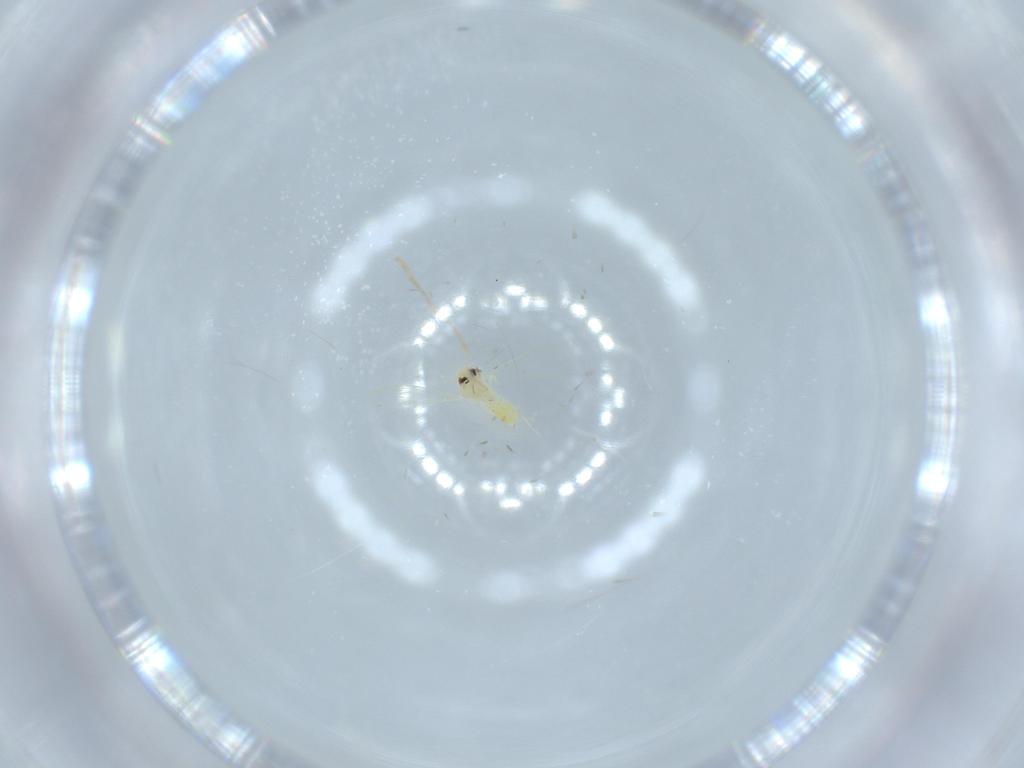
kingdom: Animalia
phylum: Arthropoda
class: Insecta
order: Hemiptera
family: Aleyrodidae
